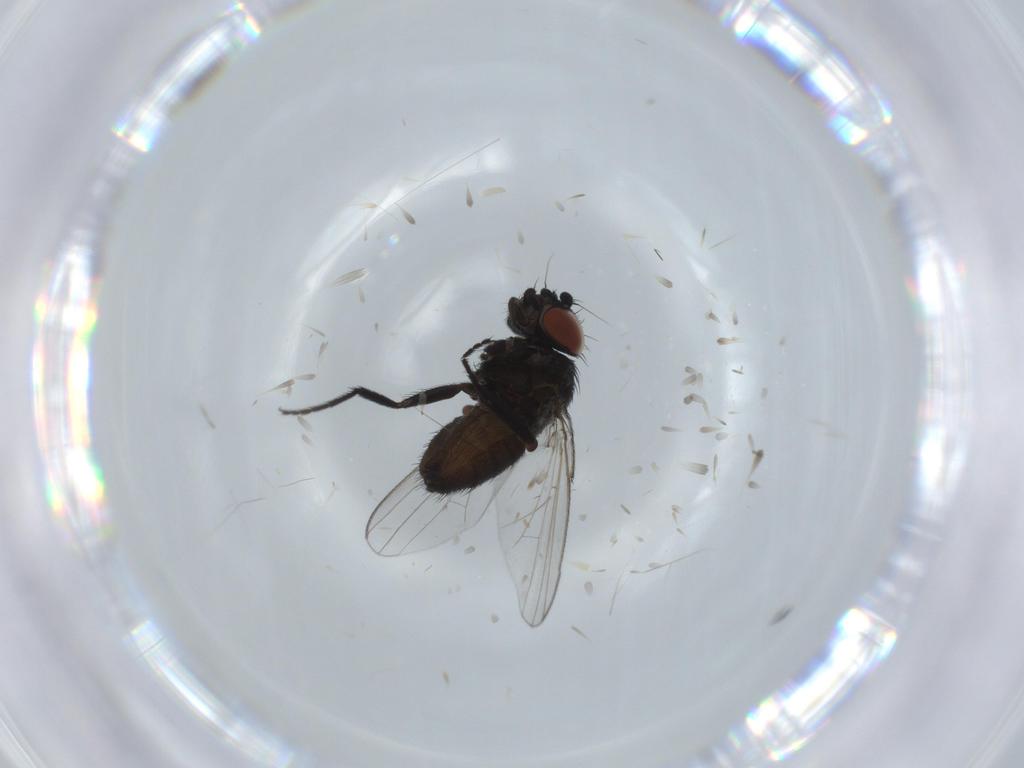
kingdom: Animalia
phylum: Arthropoda
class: Insecta
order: Diptera
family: Milichiidae
